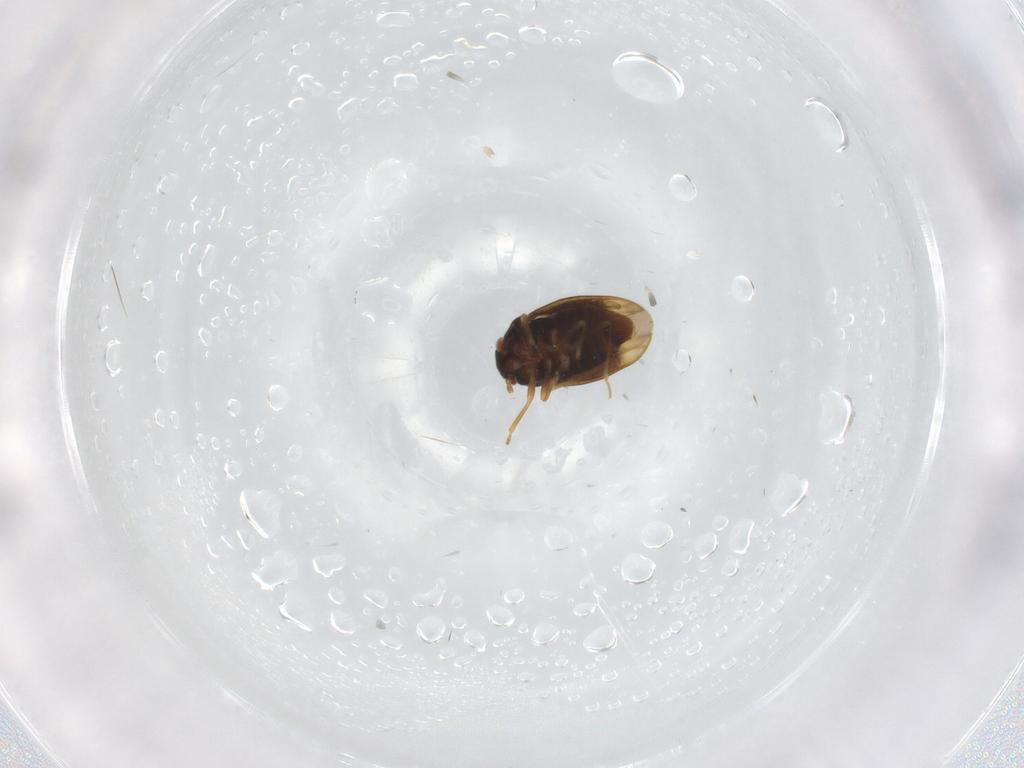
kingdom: Animalia
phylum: Arthropoda
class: Insecta
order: Hemiptera
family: Schizopteridae
